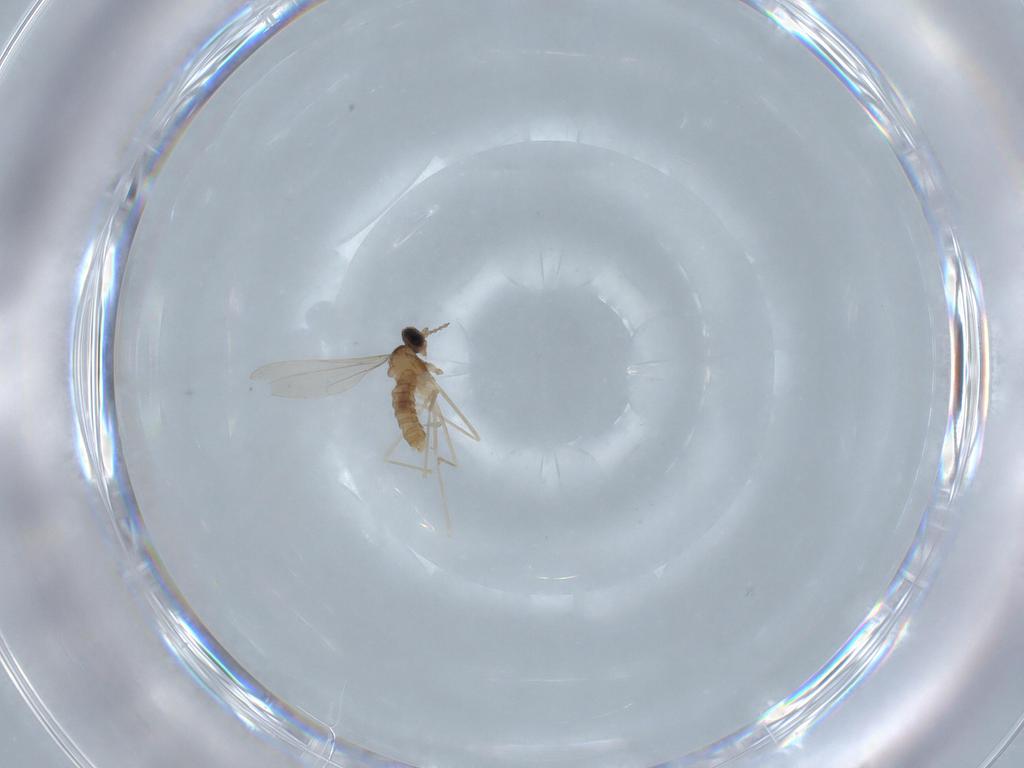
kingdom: Animalia
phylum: Arthropoda
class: Insecta
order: Diptera
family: Cecidomyiidae
